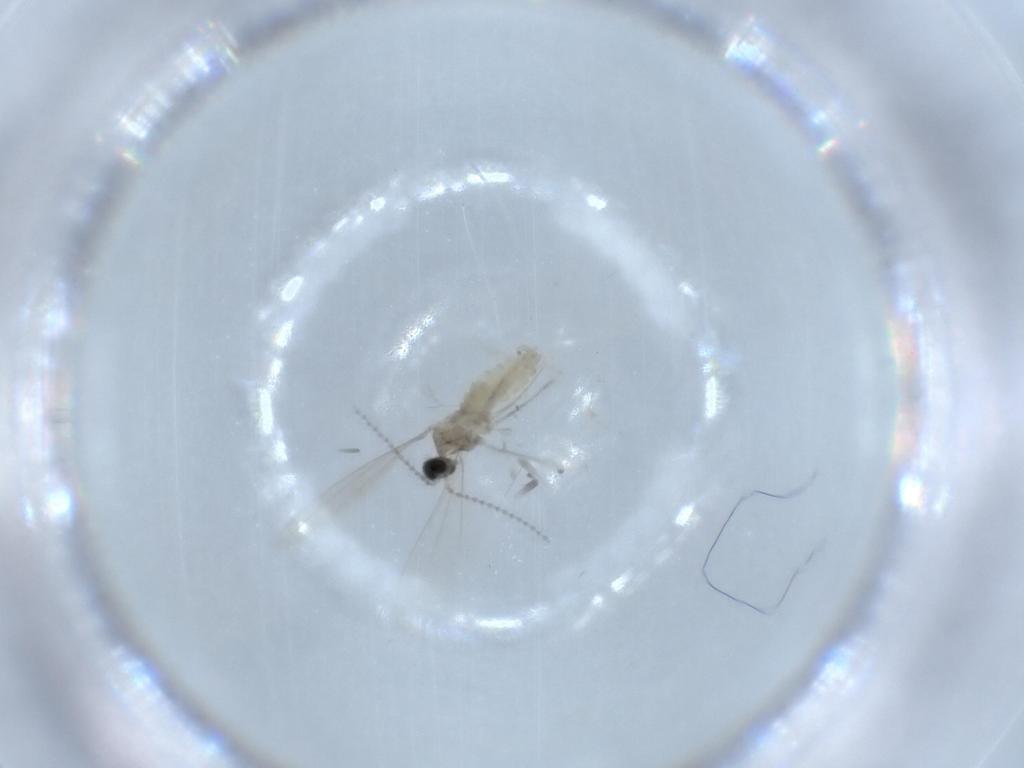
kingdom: Animalia
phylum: Arthropoda
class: Insecta
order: Diptera
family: Cecidomyiidae
